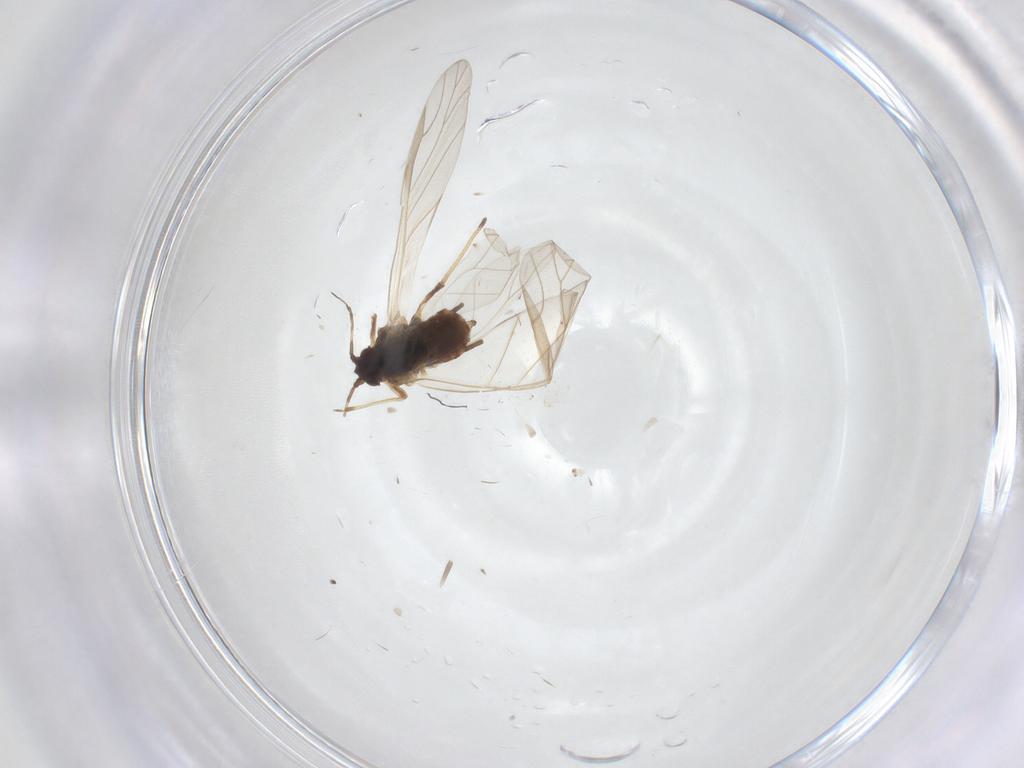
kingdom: Animalia
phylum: Arthropoda
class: Insecta
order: Hemiptera
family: Aphididae
